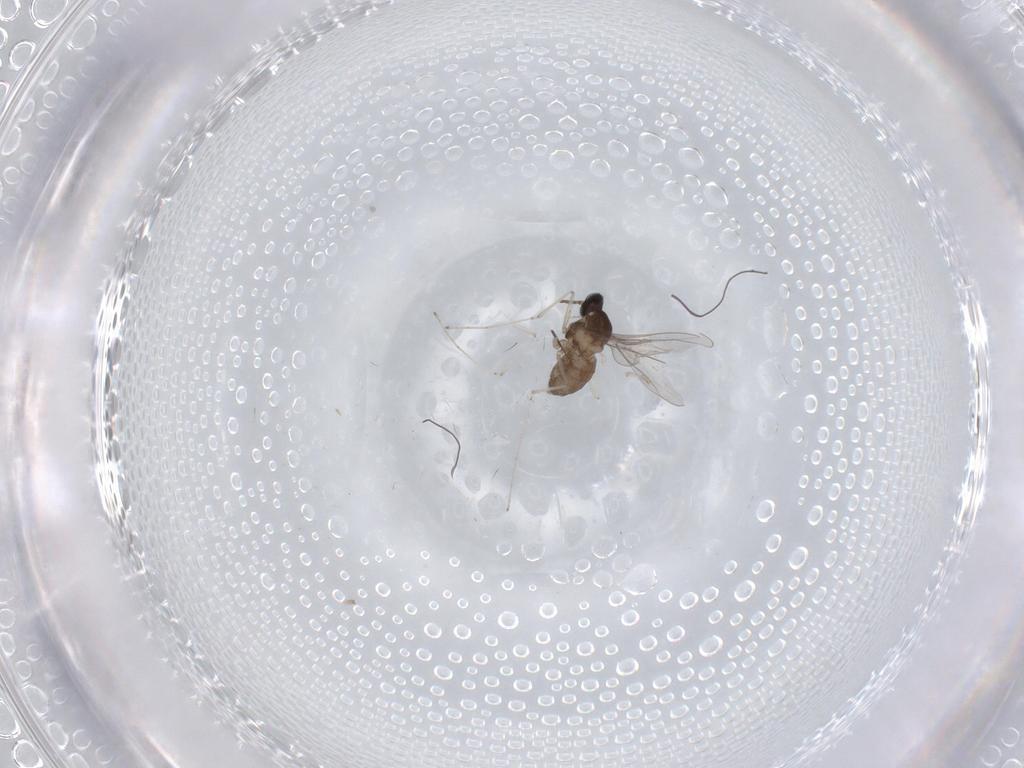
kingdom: Animalia
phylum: Arthropoda
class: Insecta
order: Diptera
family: Cecidomyiidae
